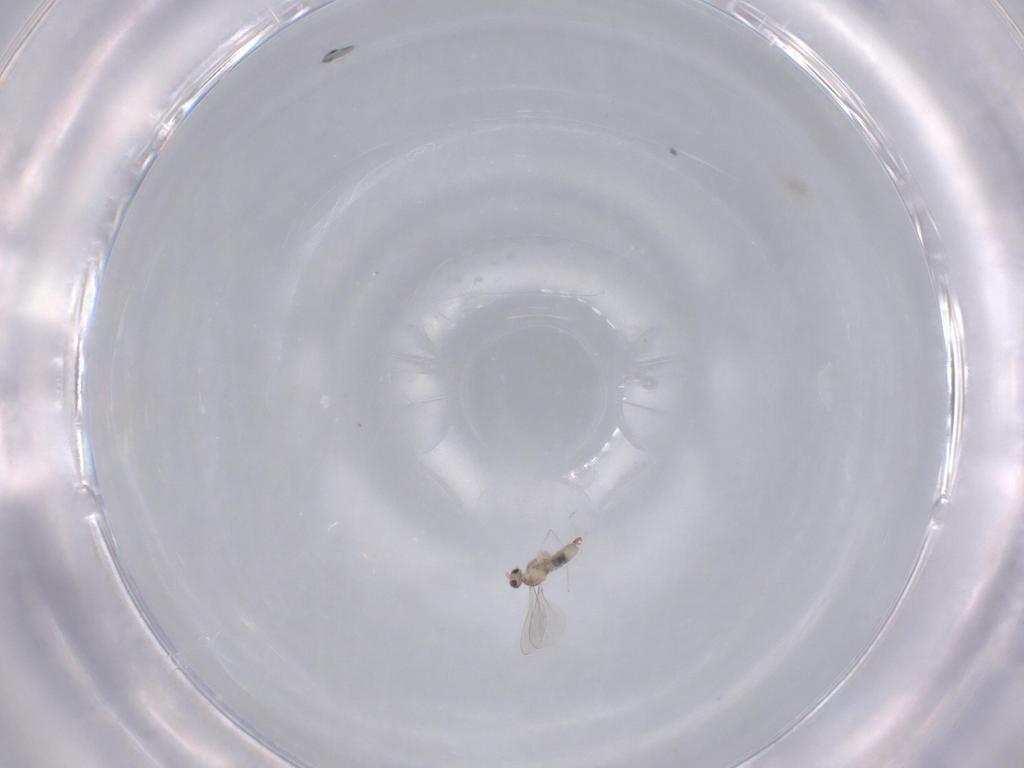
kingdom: Animalia
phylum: Arthropoda
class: Insecta
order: Diptera
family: Cecidomyiidae
